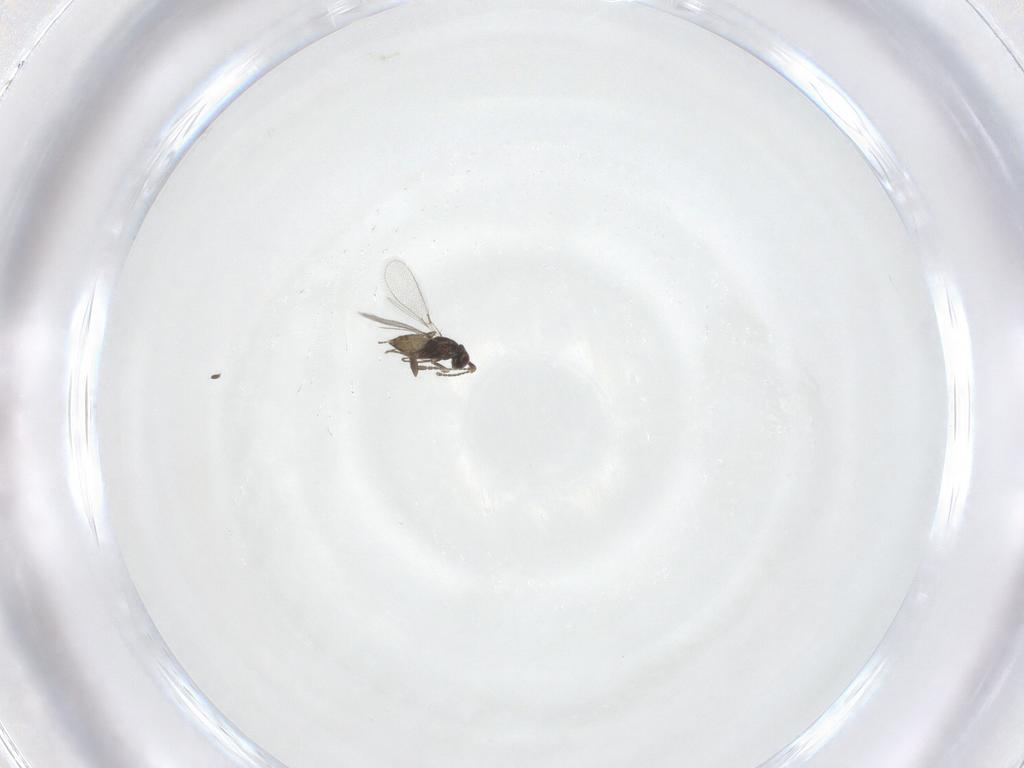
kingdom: Animalia
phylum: Arthropoda
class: Insecta
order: Hymenoptera
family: Mymaridae
